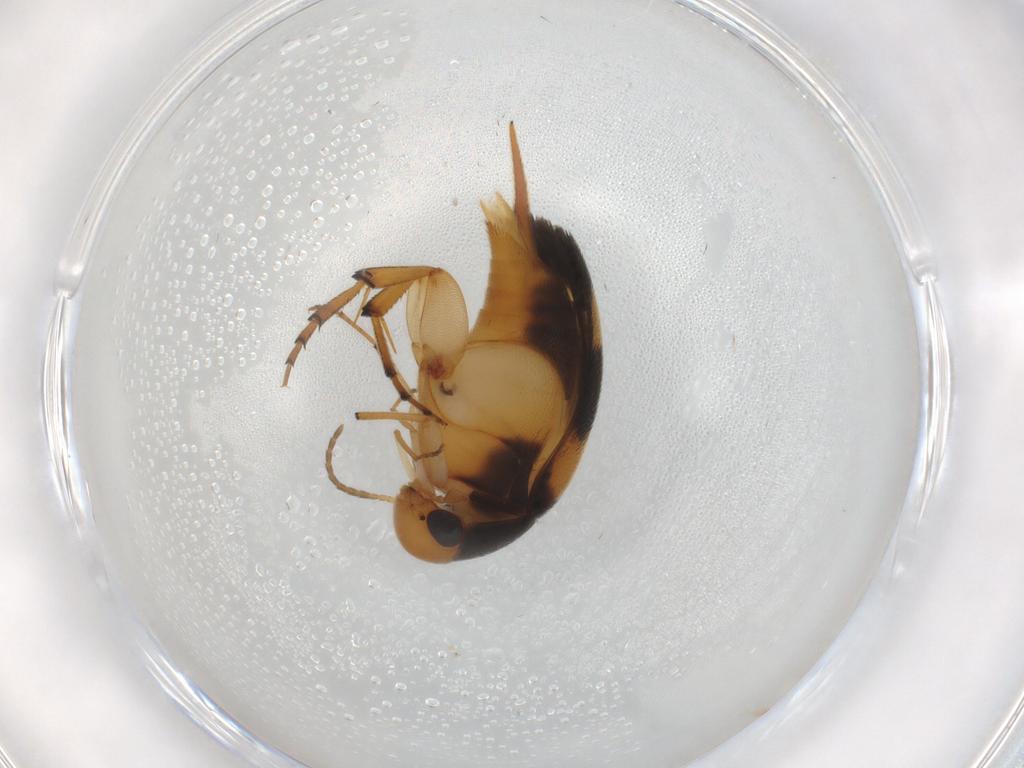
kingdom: Animalia
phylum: Arthropoda
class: Insecta
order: Coleoptera
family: Mordellidae
